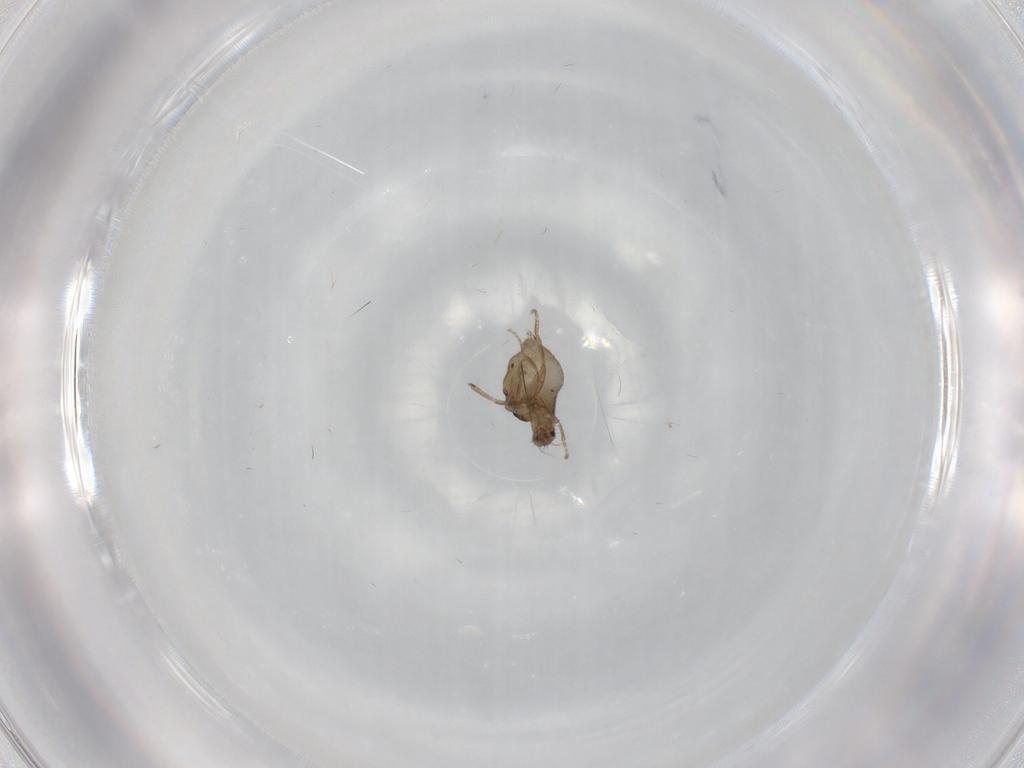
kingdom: Animalia
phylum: Arthropoda
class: Insecta
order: Diptera
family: Phoridae
